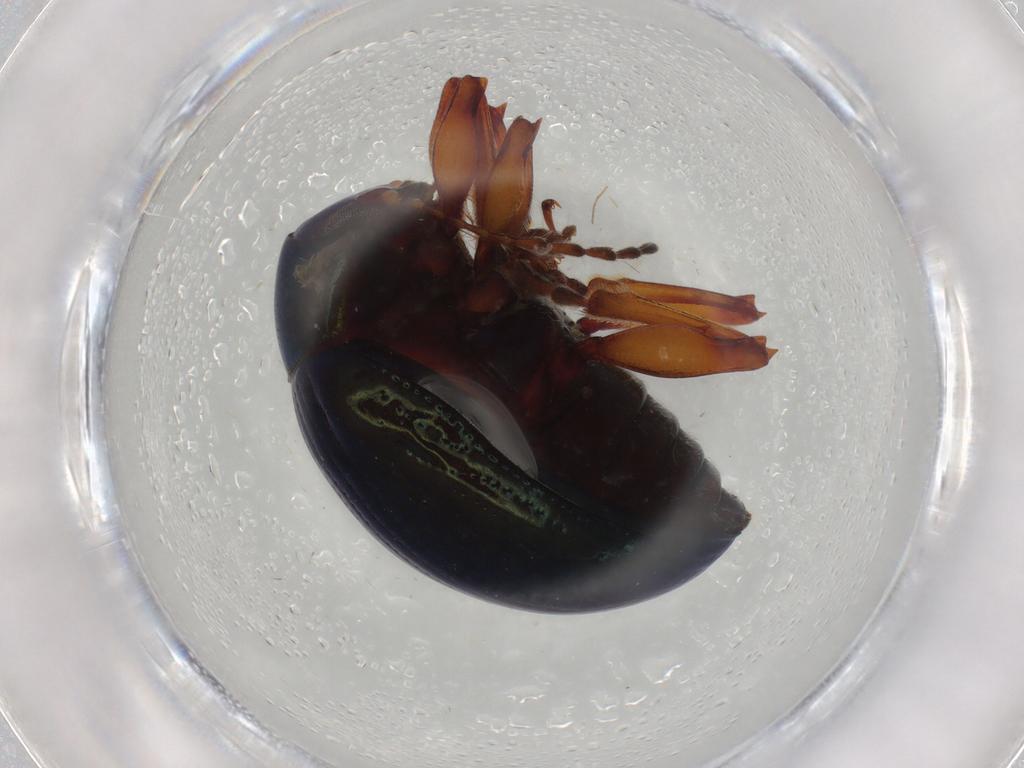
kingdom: Animalia
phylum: Arthropoda
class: Insecta
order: Coleoptera
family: Chrysomelidae
